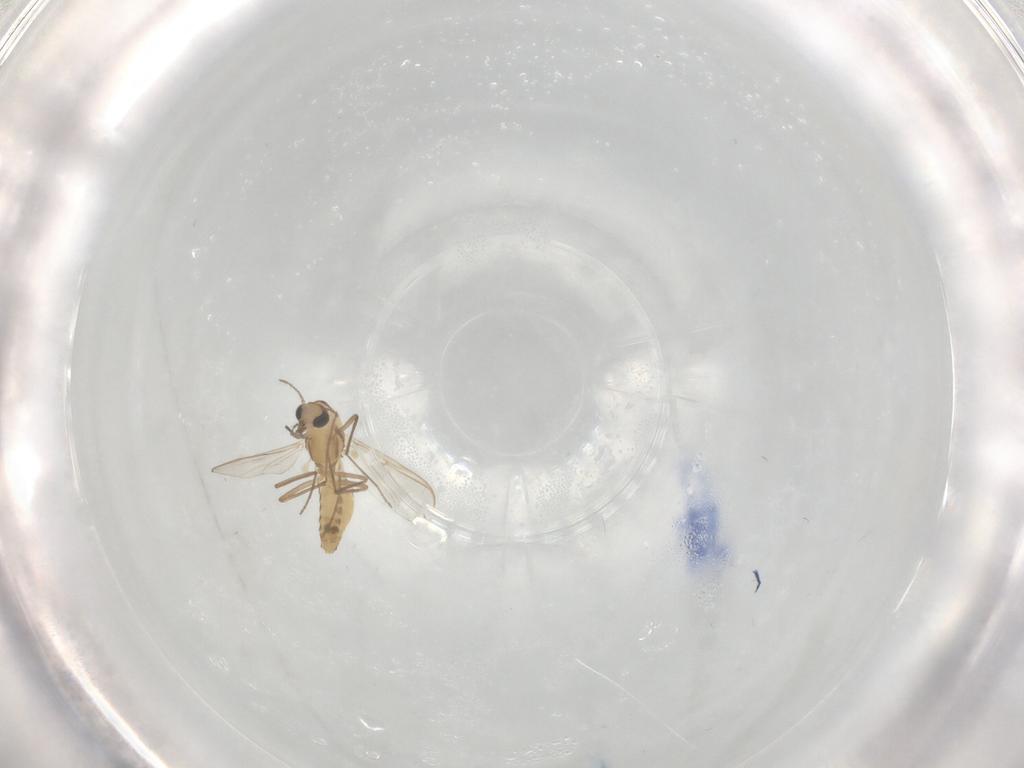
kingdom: Animalia
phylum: Arthropoda
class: Insecta
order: Diptera
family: Chironomidae
